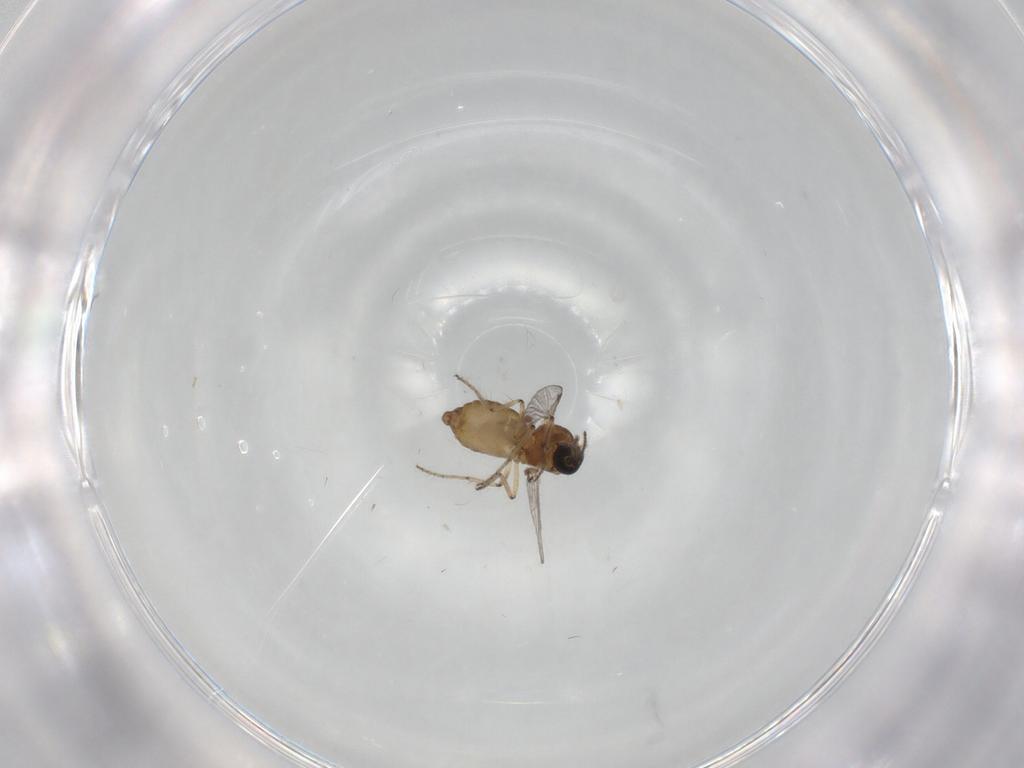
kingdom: Animalia
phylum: Arthropoda
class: Insecta
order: Diptera
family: Ceratopogonidae
